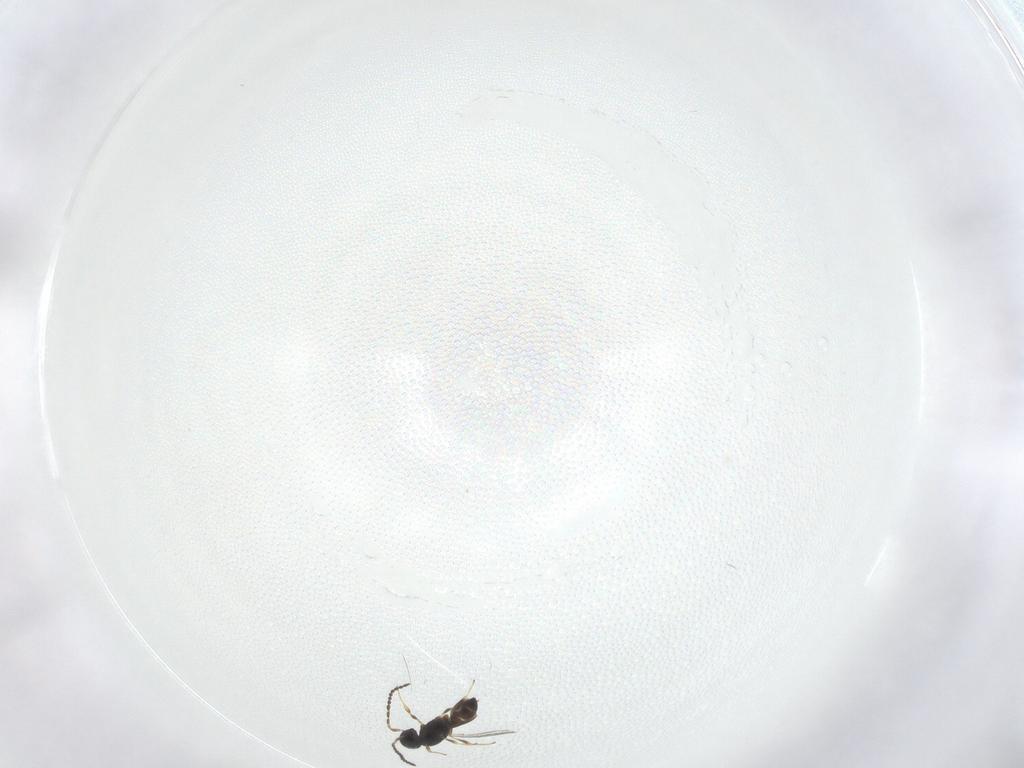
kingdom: Animalia
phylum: Arthropoda
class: Insecta
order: Hymenoptera
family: Scelionidae
